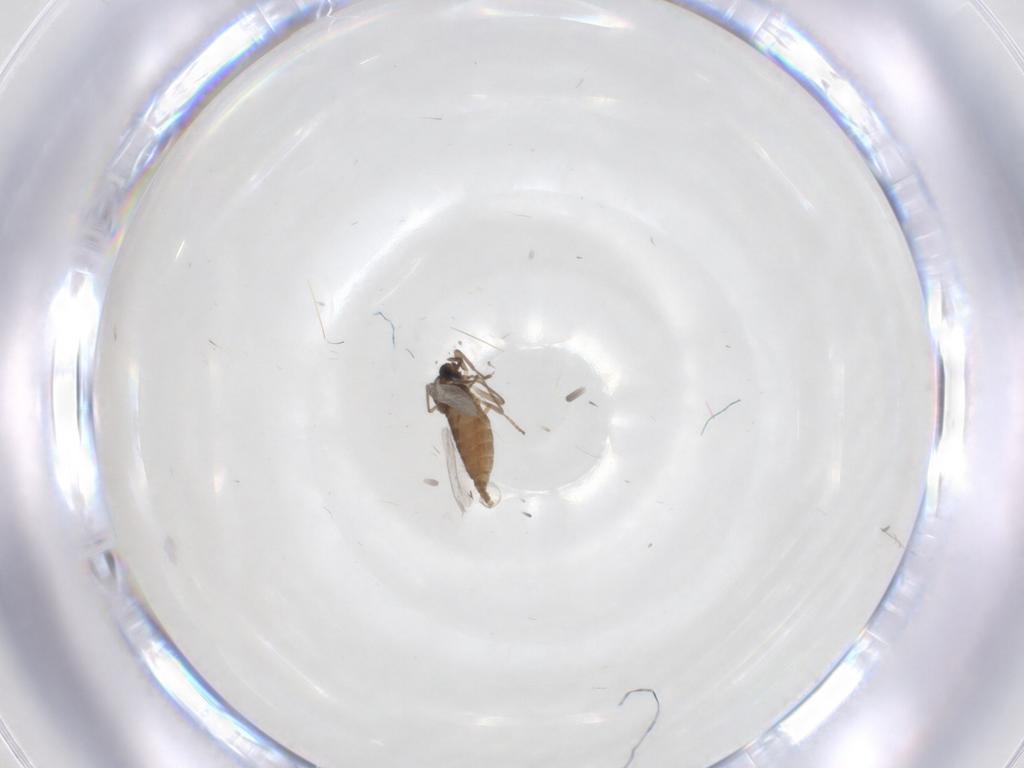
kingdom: Animalia
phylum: Arthropoda
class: Insecta
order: Diptera
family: Cecidomyiidae
